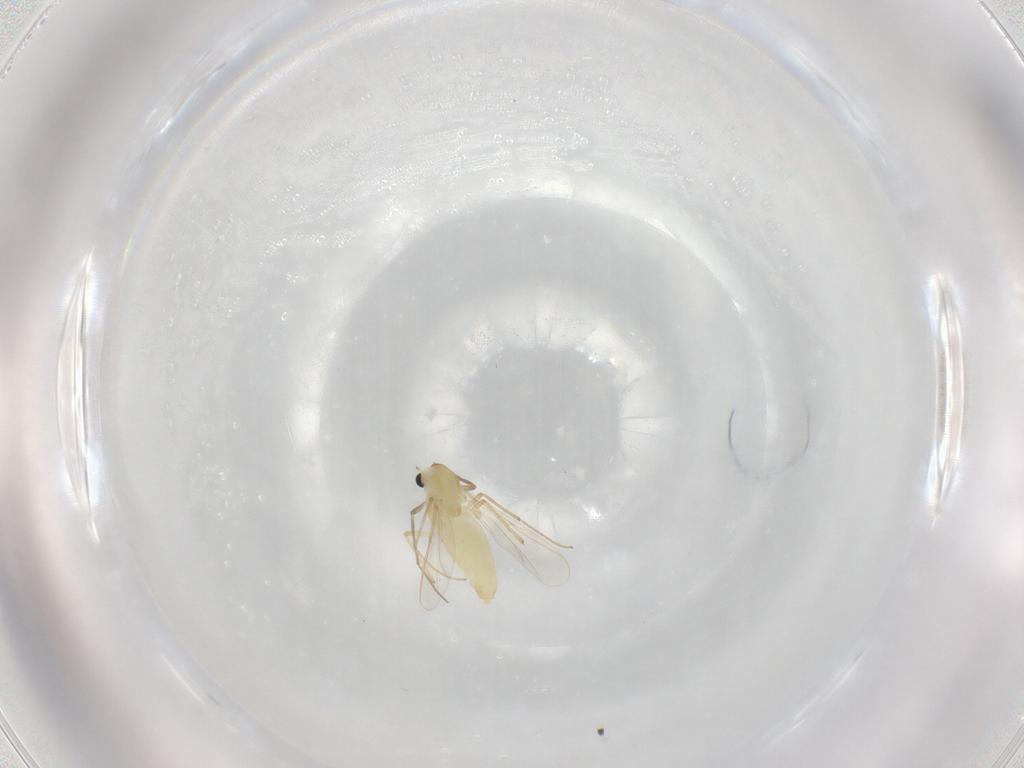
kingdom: Animalia
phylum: Arthropoda
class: Insecta
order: Diptera
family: Chironomidae
